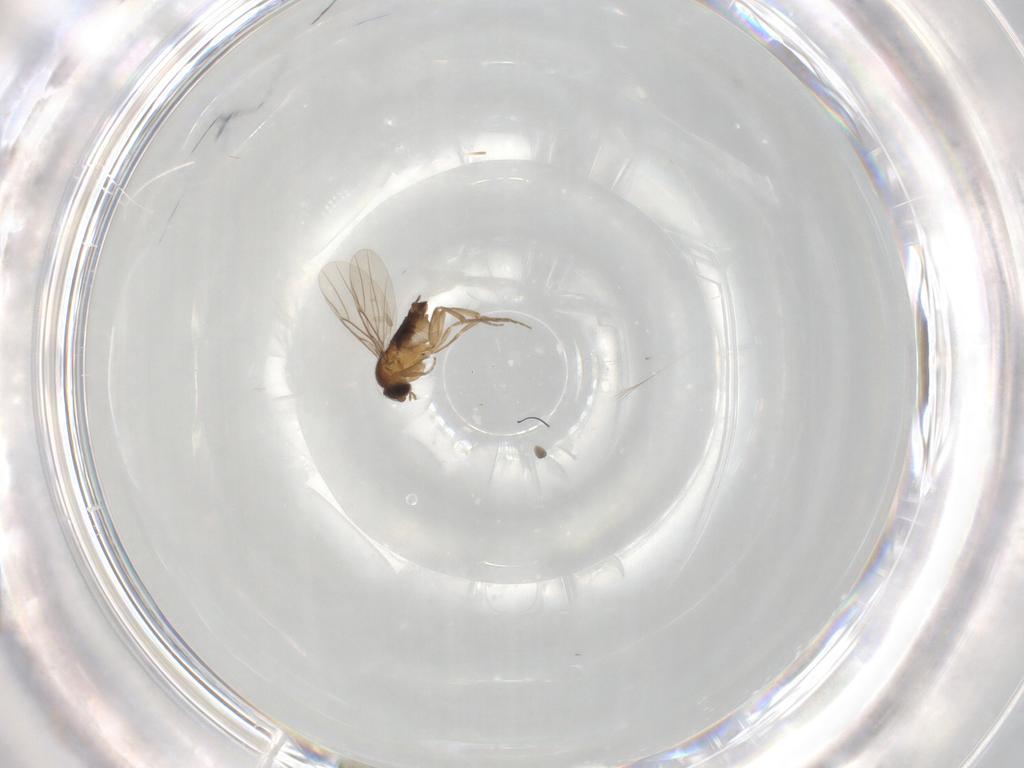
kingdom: Animalia
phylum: Arthropoda
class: Insecta
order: Diptera
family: Phoridae
